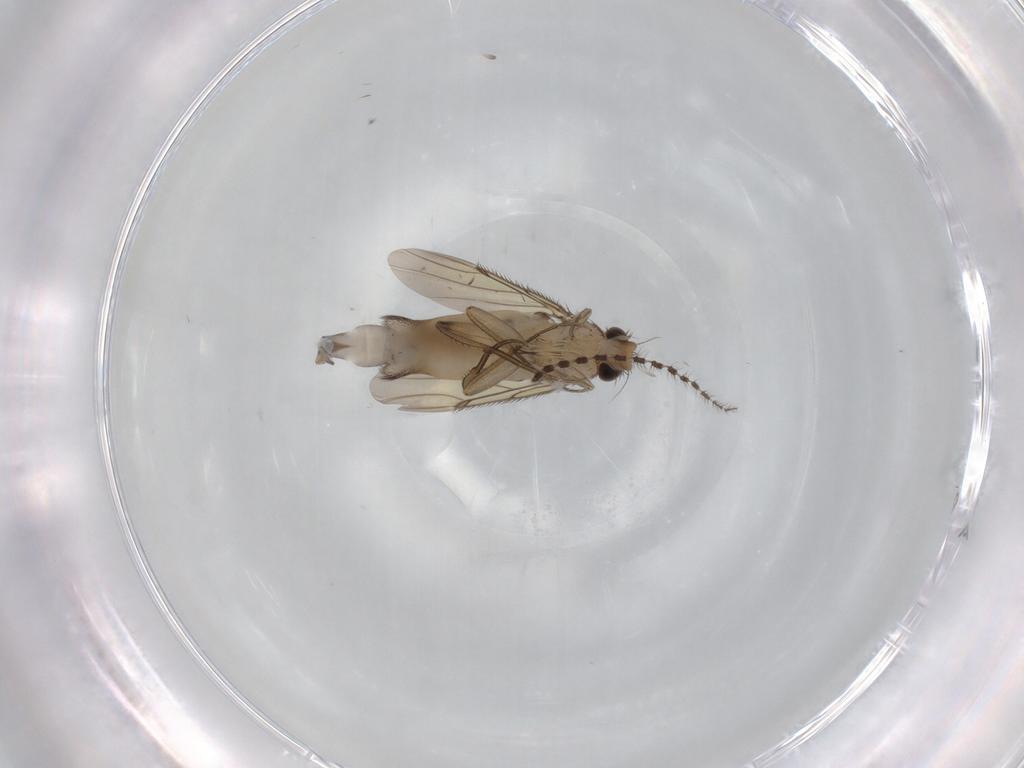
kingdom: Animalia
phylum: Arthropoda
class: Insecta
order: Diptera
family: Phoridae
